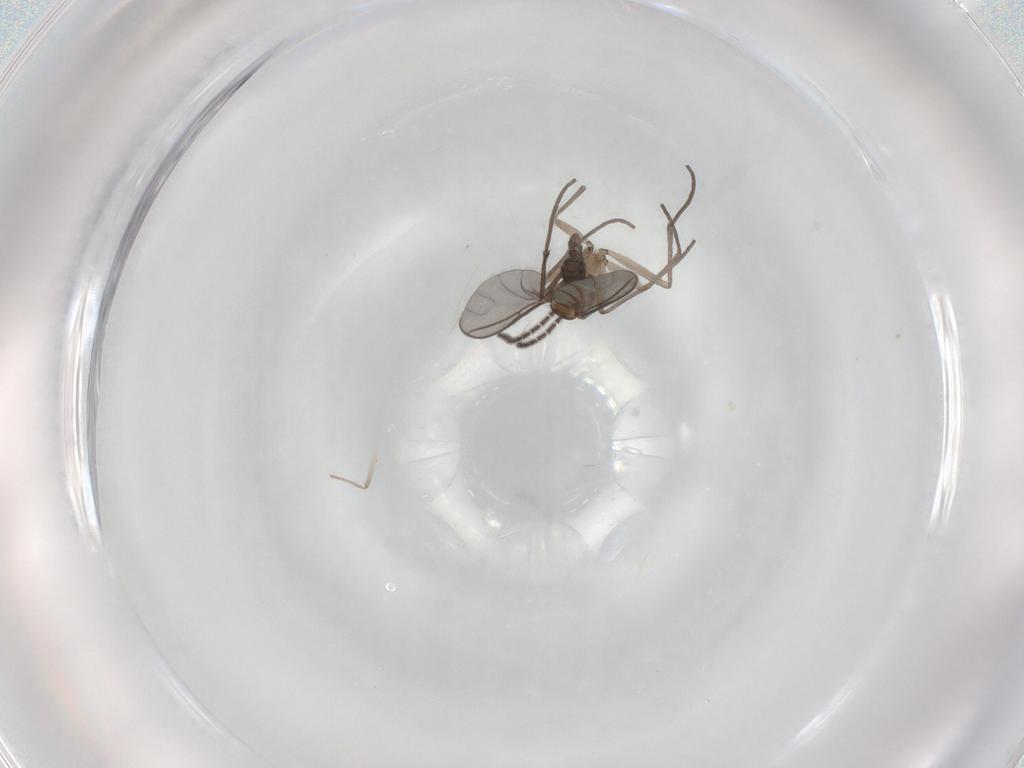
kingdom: Animalia
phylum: Arthropoda
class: Insecta
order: Diptera
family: Sciaridae
